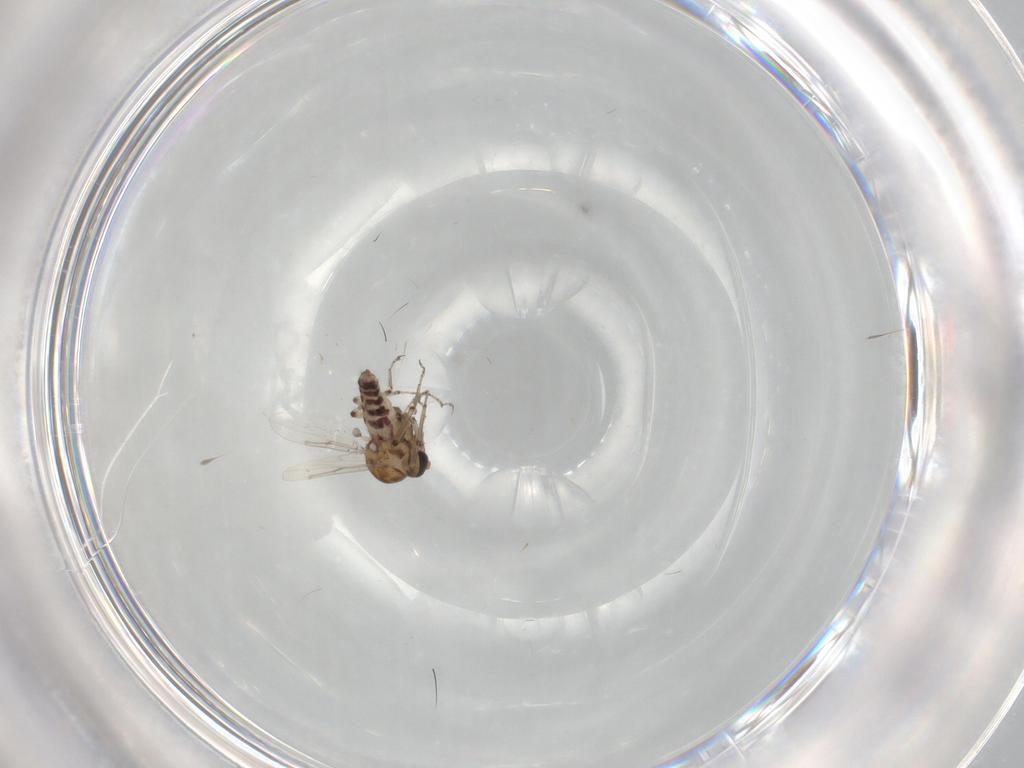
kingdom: Animalia
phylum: Arthropoda
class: Insecta
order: Diptera
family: Ceratopogonidae
